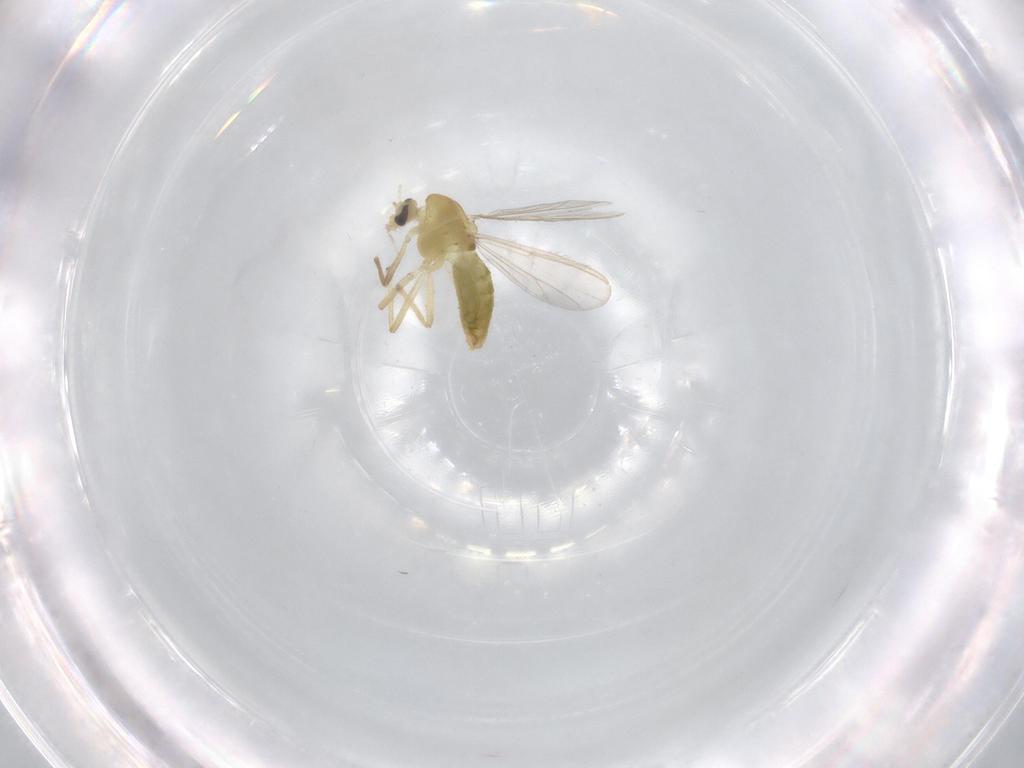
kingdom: Animalia
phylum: Arthropoda
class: Insecta
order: Diptera
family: Chironomidae
